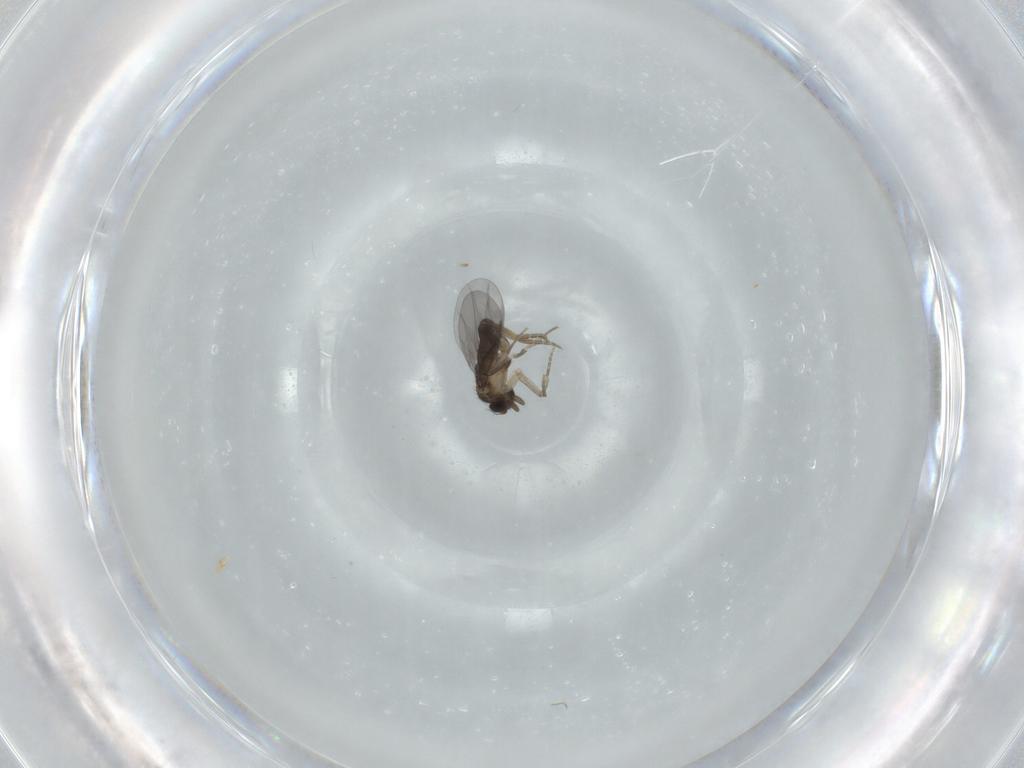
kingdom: Animalia
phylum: Arthropoda
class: Insecta
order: Diptera
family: Phoridae
